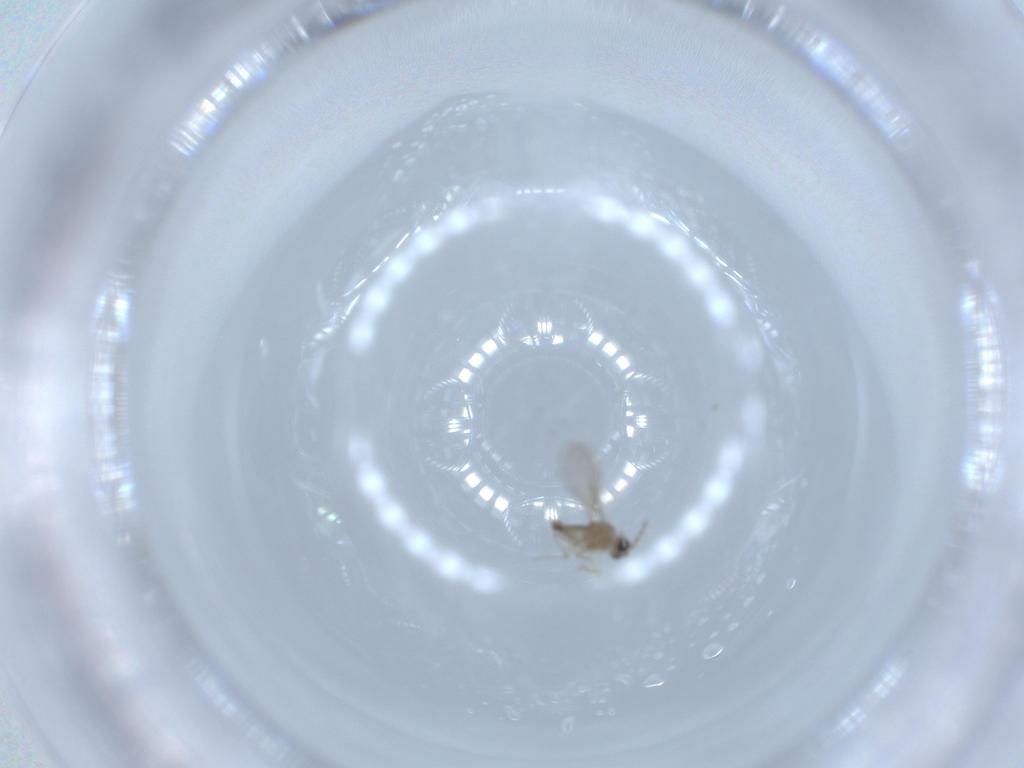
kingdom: Animalia
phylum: Arthropoda
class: Insecta
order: Diptera
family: Cecidomyiidae
